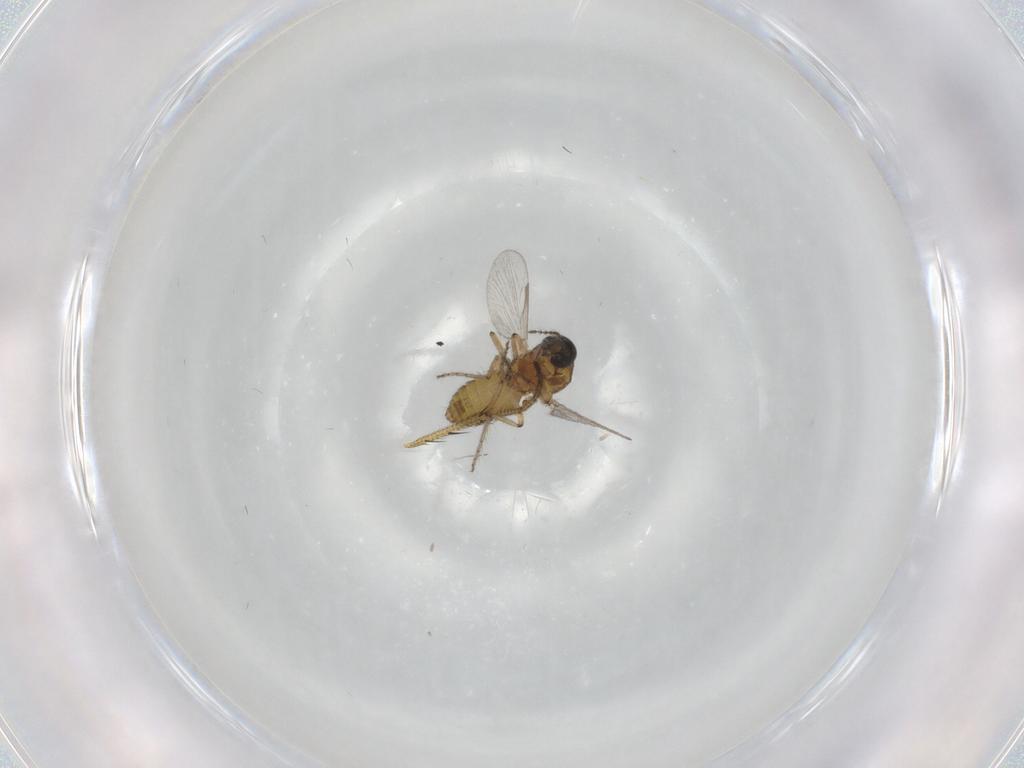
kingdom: Animalia
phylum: Arthropoda
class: Insecta
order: Diptera
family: Ceratopogonidae
